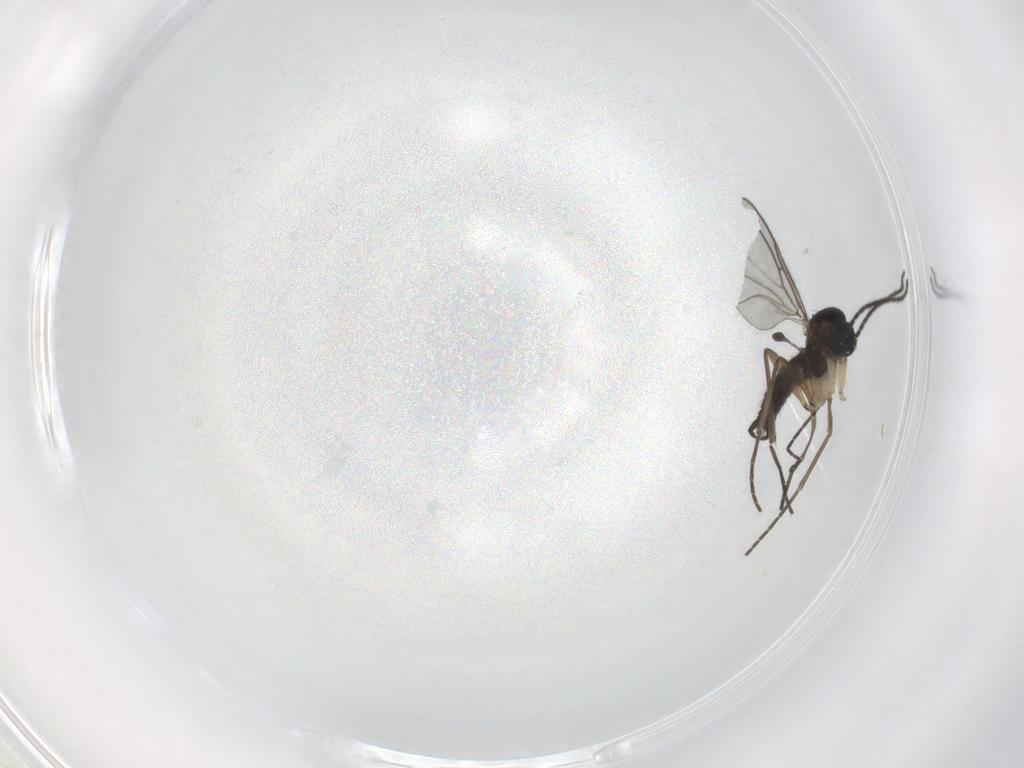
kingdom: Animalia
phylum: Arthropoda
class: Insecta
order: Diptera
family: Sciaridae
